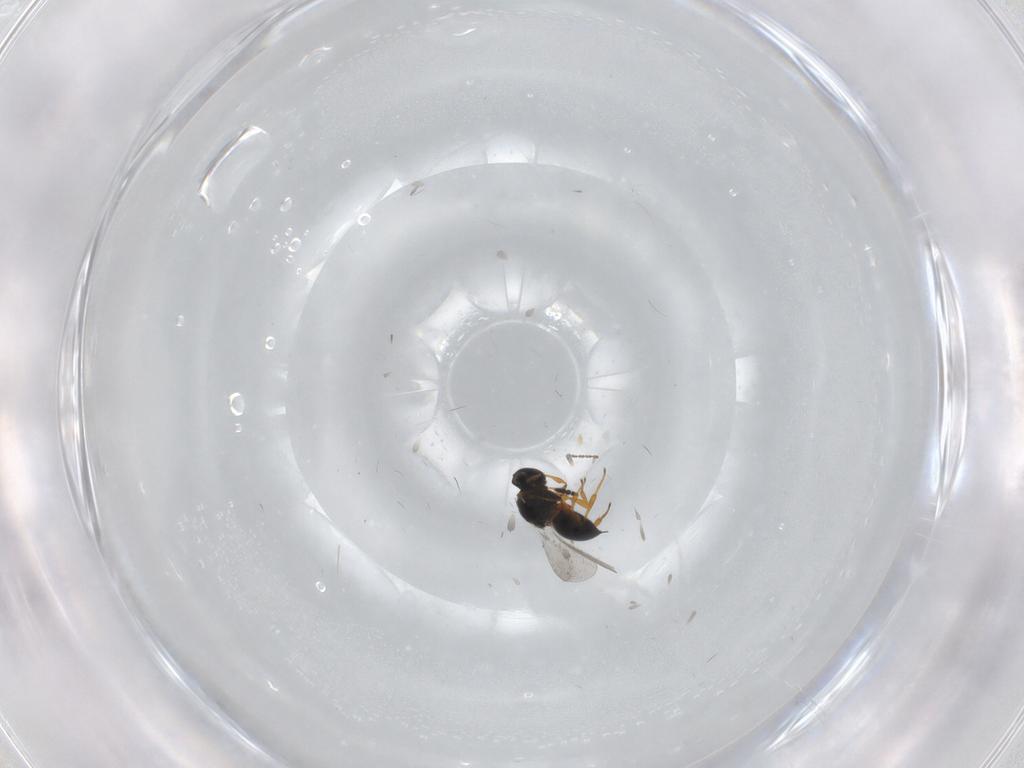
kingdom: Animalia
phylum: Arthropoda
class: Insecta
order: Hymenoptera
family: Platygastridae
